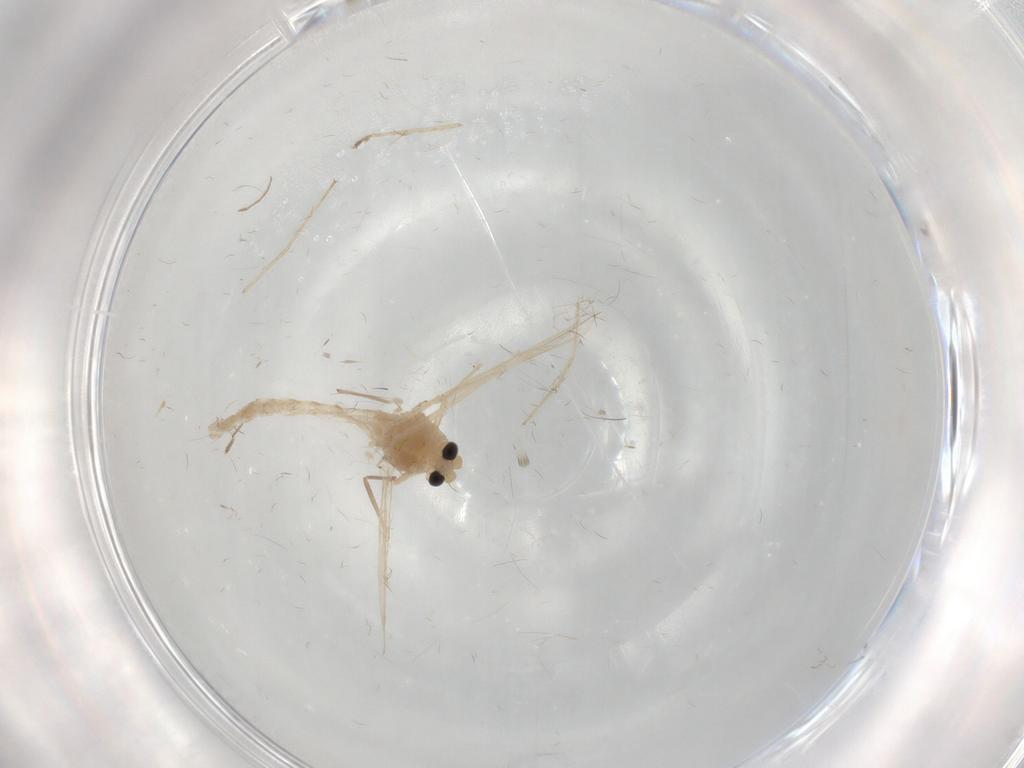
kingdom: Animalia
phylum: Arthropoda
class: Insecta
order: Diptera
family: Chironomidae
